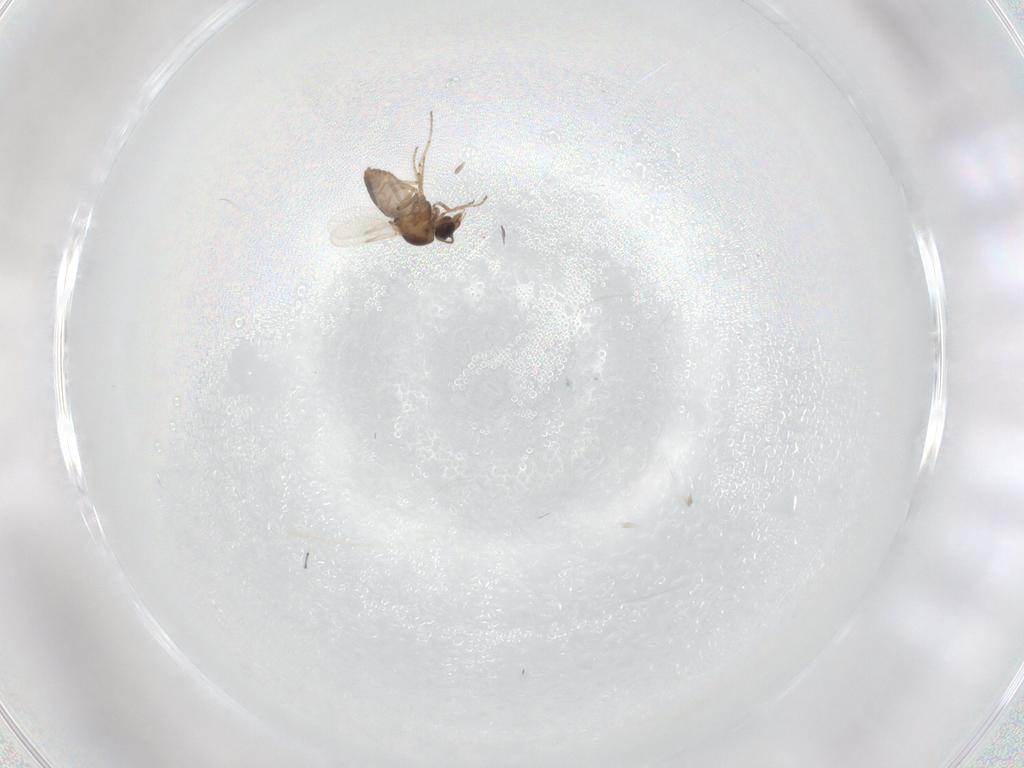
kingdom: Animalia
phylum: Arthropoda
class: Insecta
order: Diptera
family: Ceratopogonidae
